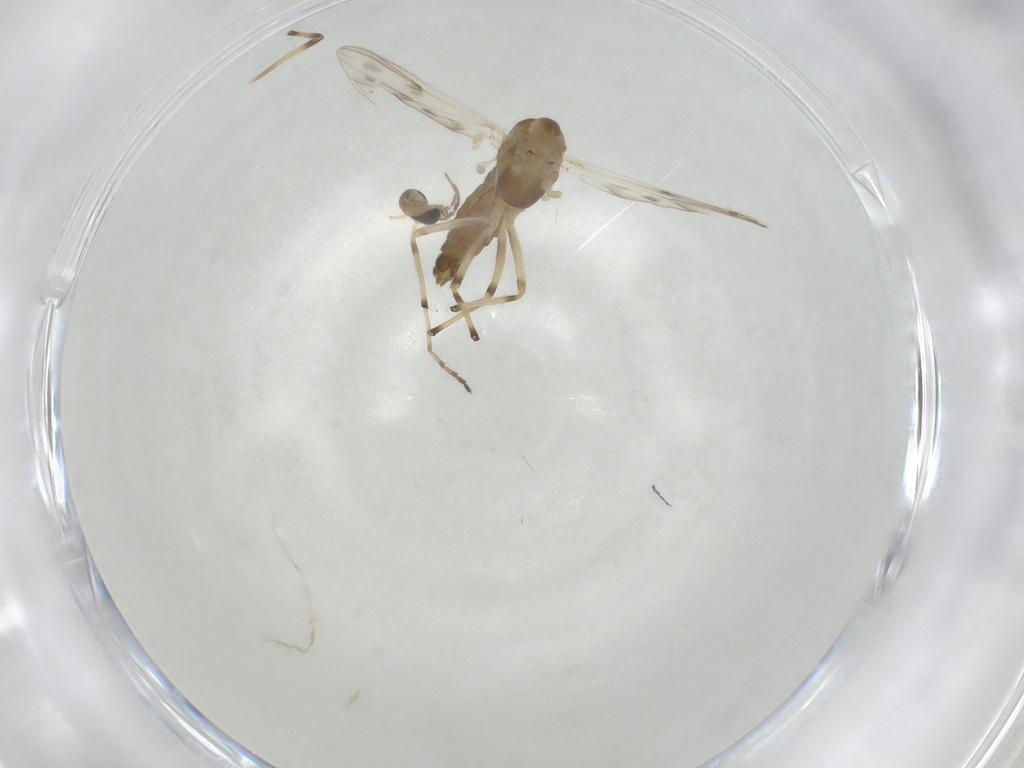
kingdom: Animalia
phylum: Arthropoda
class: Insecta
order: Diptera
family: Chironomidae
